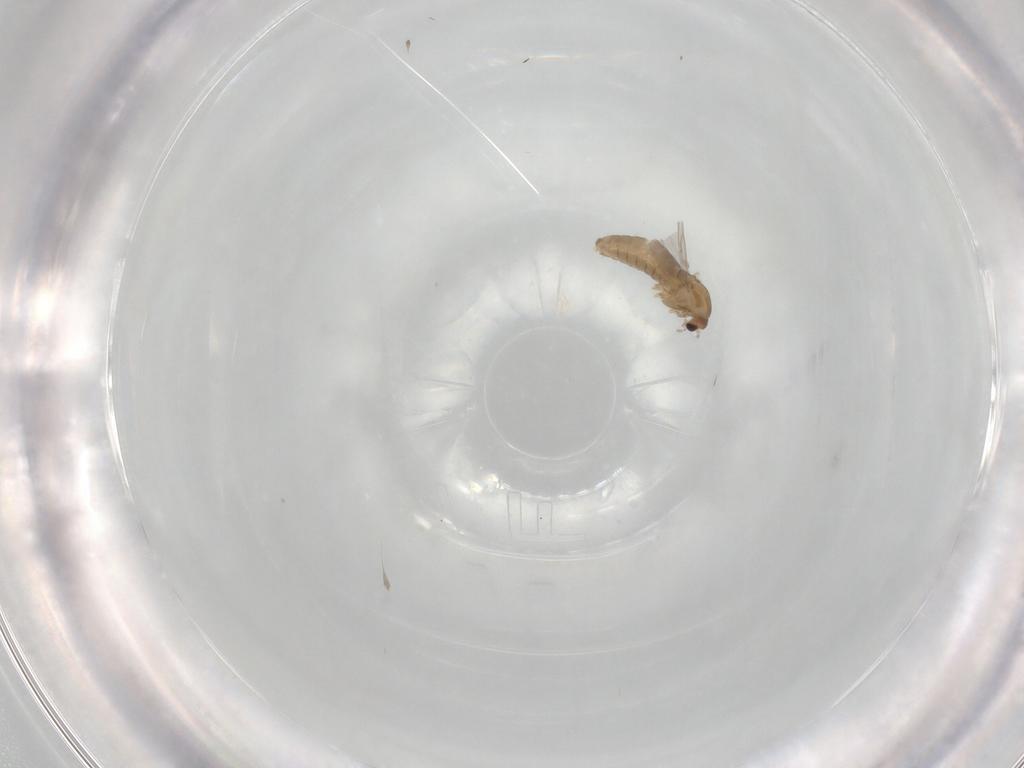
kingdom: Animalia
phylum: Arthropoda
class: Insecta
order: Diptera
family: Chironomidae
